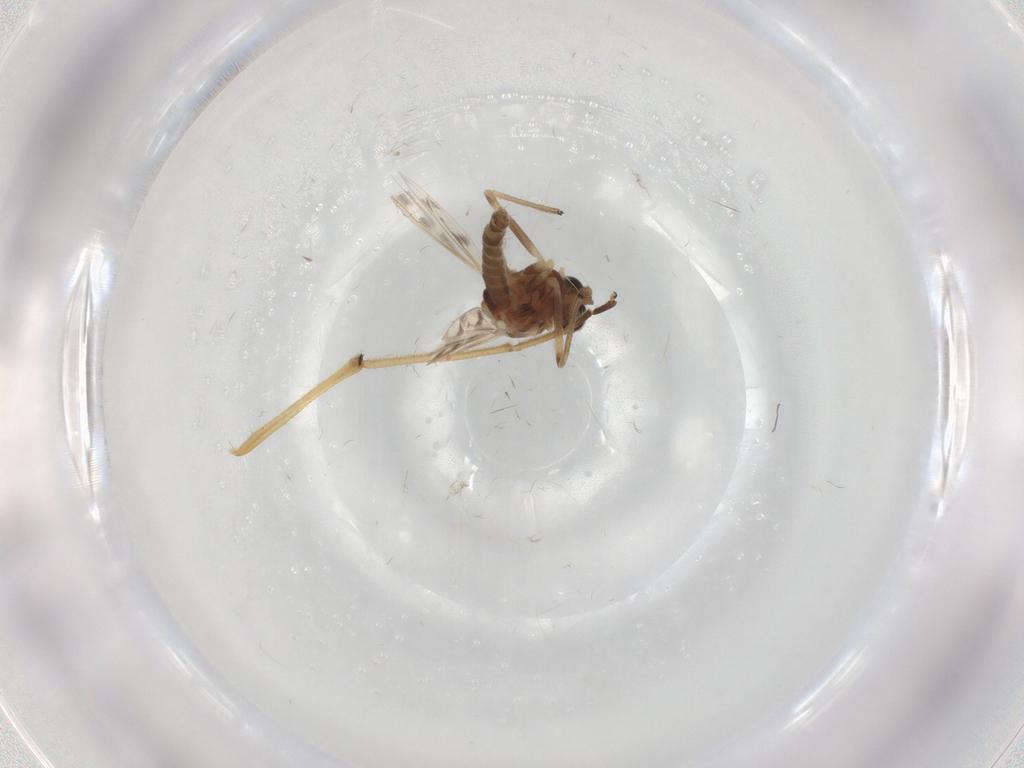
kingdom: Animalia
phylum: Arthropoda
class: Insecta
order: Diptera
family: Chironomidae
